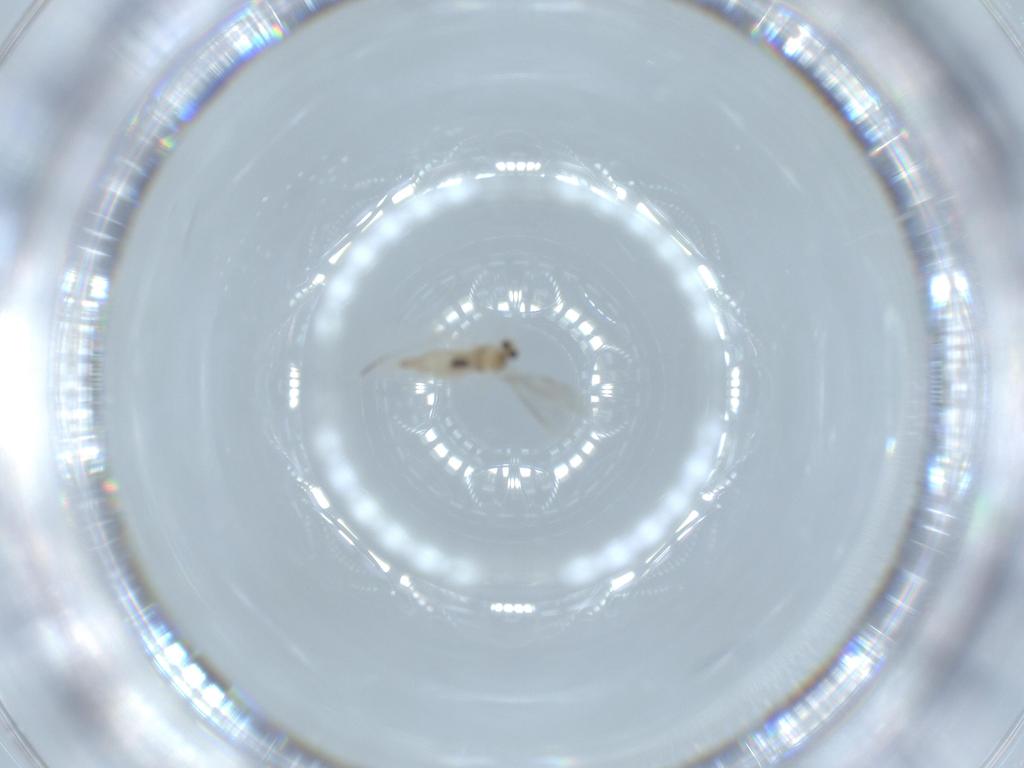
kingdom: Animalia
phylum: Arthropoda
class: Insecta
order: Diptera
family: Cecidomyiidae
